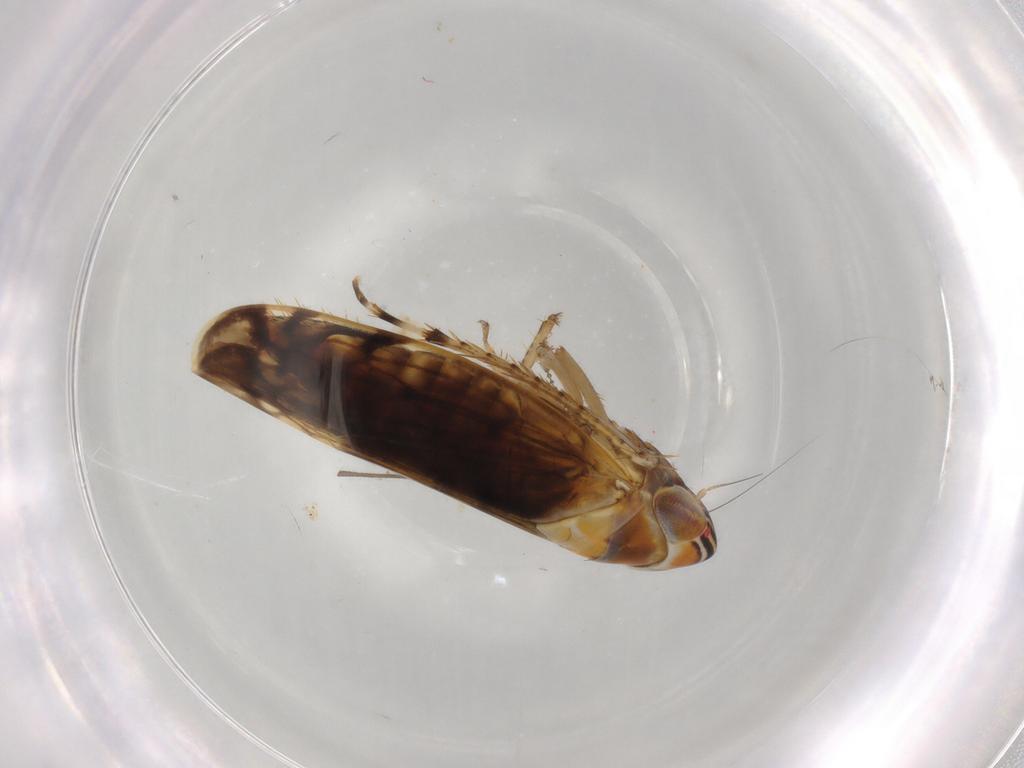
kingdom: Animalia
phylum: Arthropoda
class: Insecta
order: Hemiptera
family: Cicadellidae
